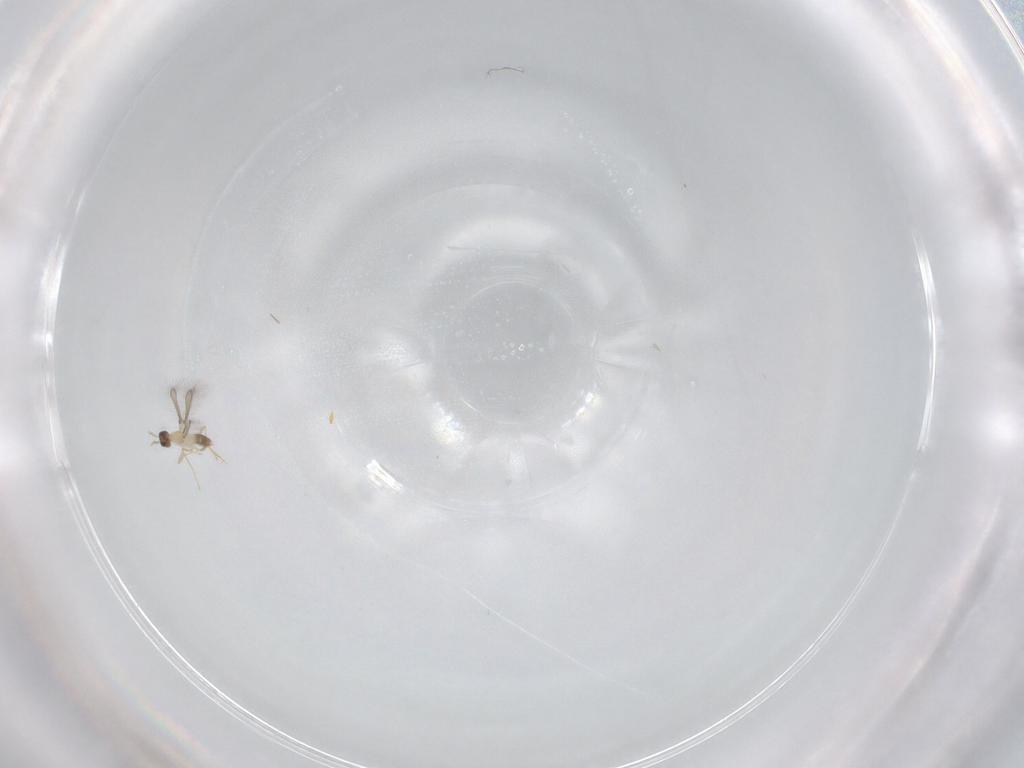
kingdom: Animalia
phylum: Arthropoda
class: Insecta
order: Hymenoptera
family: Mymaridae
